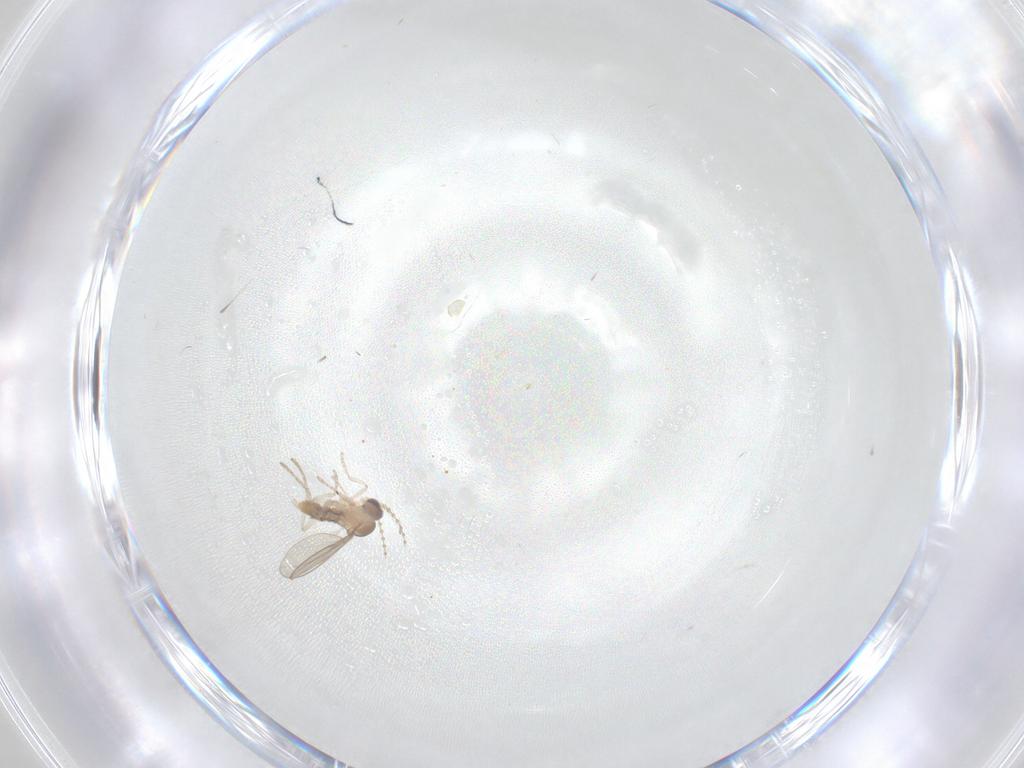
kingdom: Animalia
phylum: Arthropoda
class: Insecta
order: Diptera
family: Cecidomyiidae
